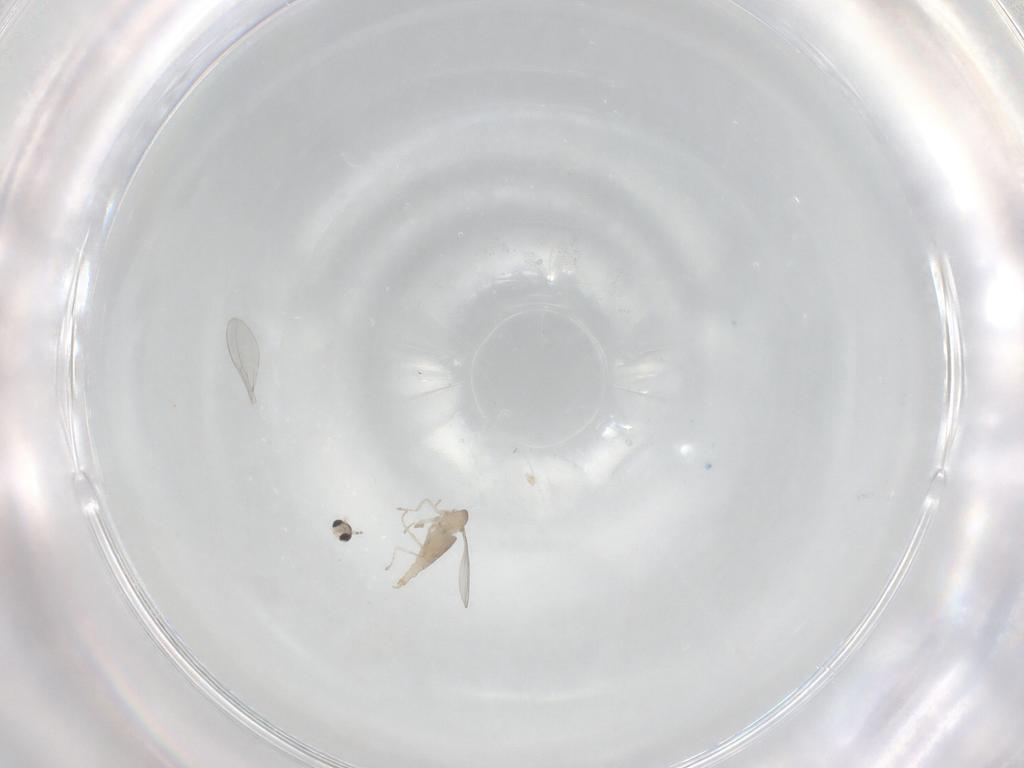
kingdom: Animalia
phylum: Arthropoda
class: Insecta
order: Diptera
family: Cecidomyiidae
